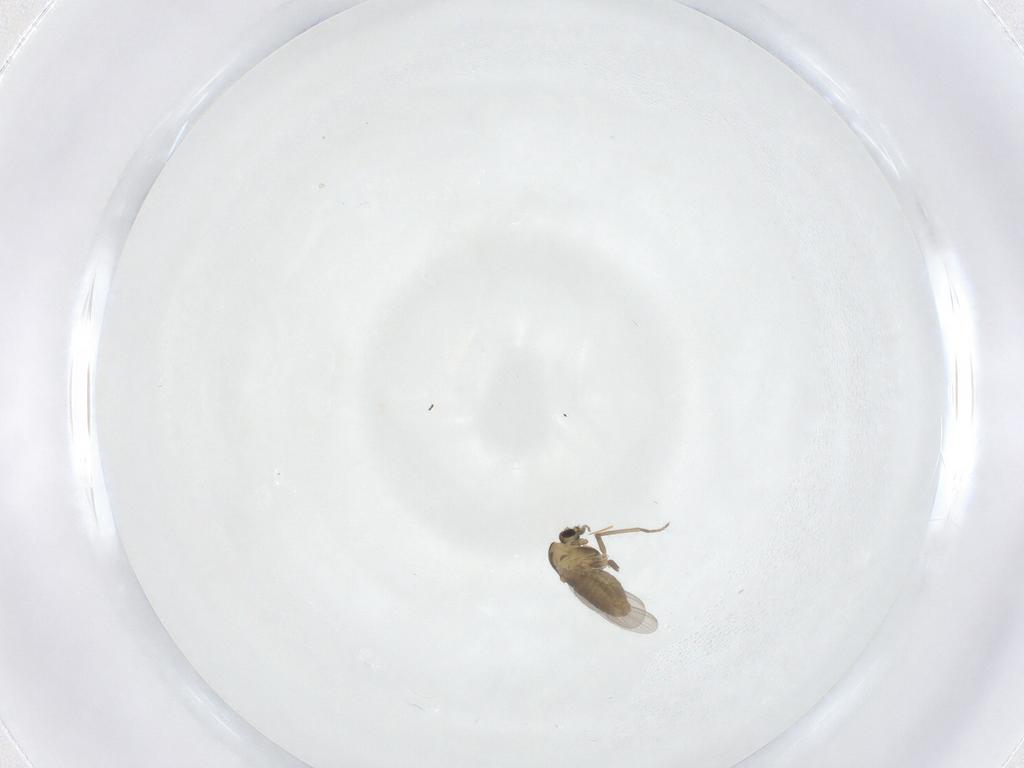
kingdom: Animalia
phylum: Arthropoda
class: Insecta
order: Diptera
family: Chironomidae
